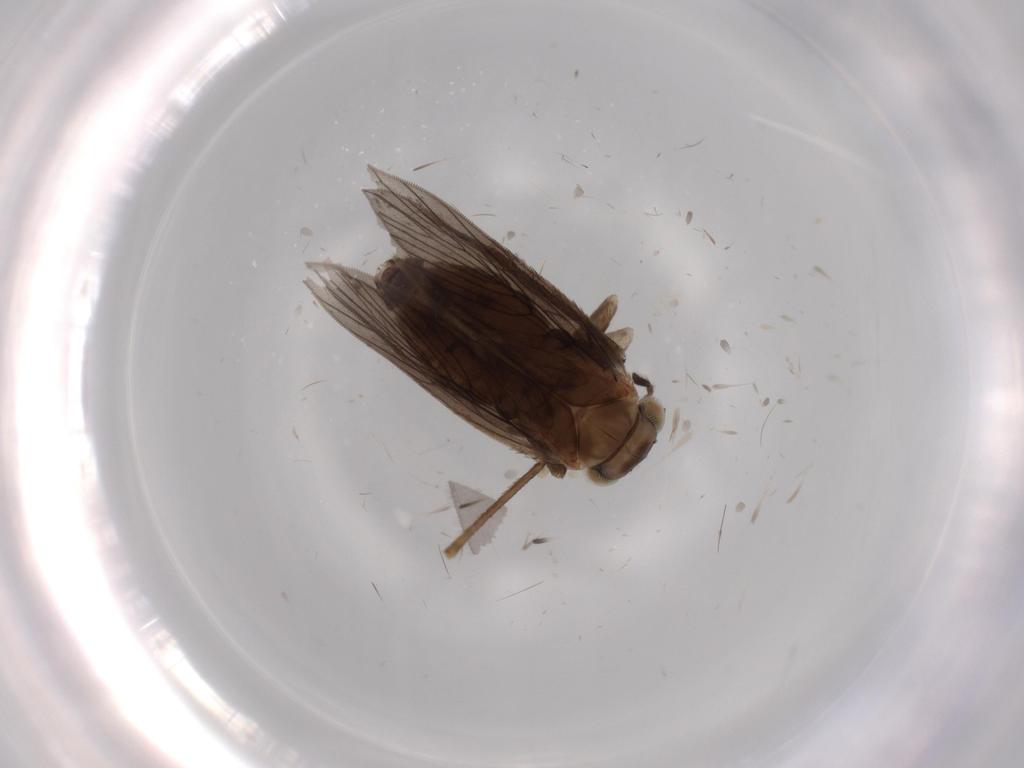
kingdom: Animalia
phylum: Arthropoda
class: Insecta
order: Psocodea
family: Lepidopsocidae
